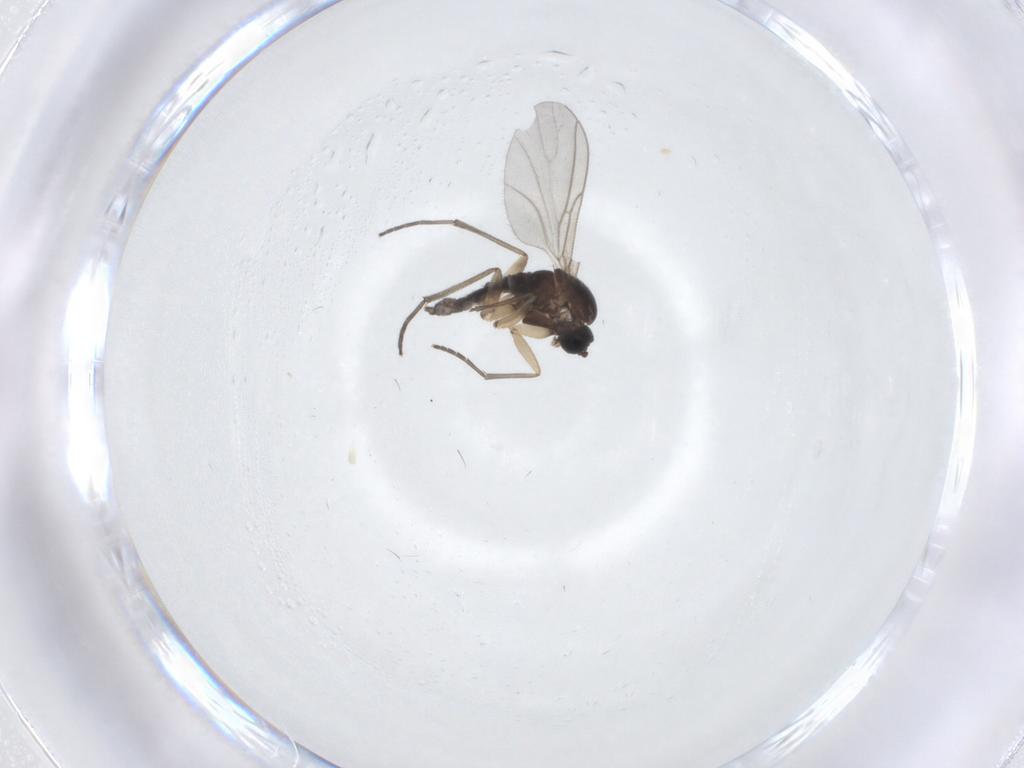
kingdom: Animalia
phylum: Arthropoda
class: Insecta
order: Diptera
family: Sciaridae
